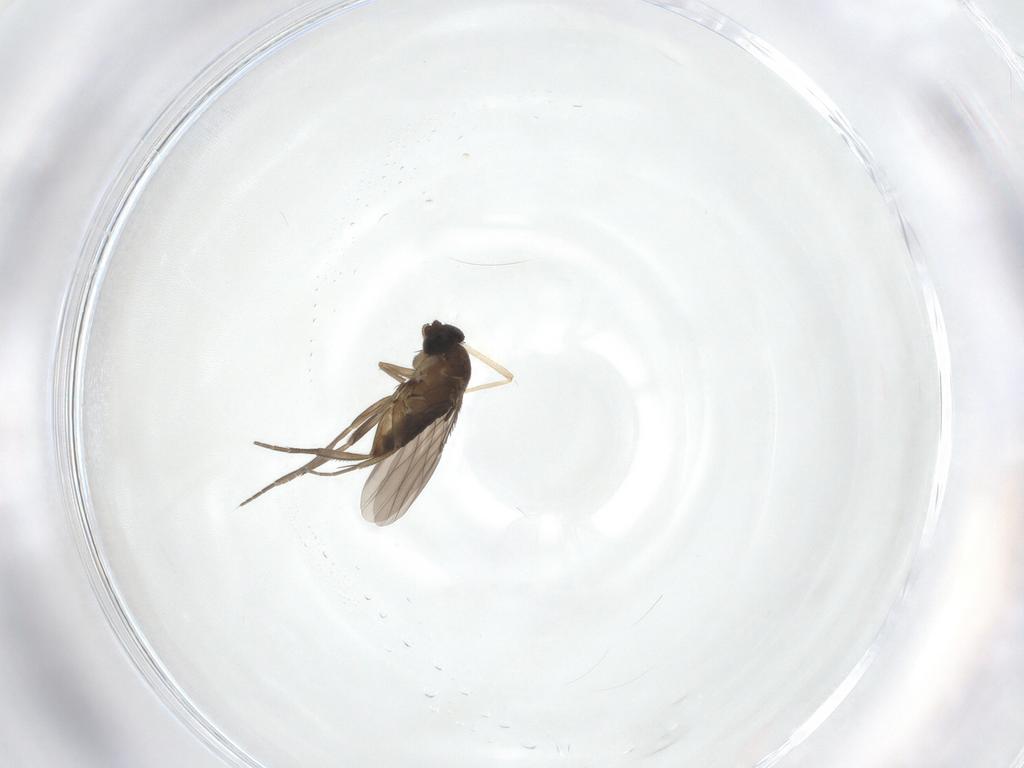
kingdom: Animalia
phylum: Arthropoda
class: Insecta
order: Diptera
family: Phoridae
